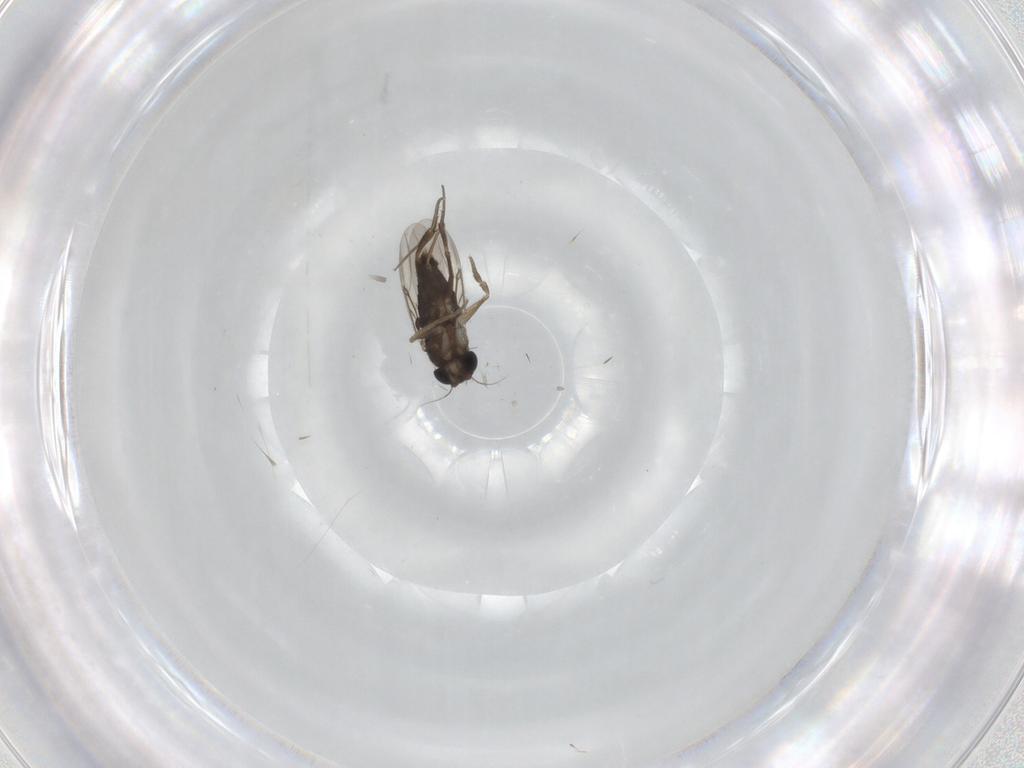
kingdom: Animalia
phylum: Arthropoda
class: Insecta
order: Diptera
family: Phoridae
